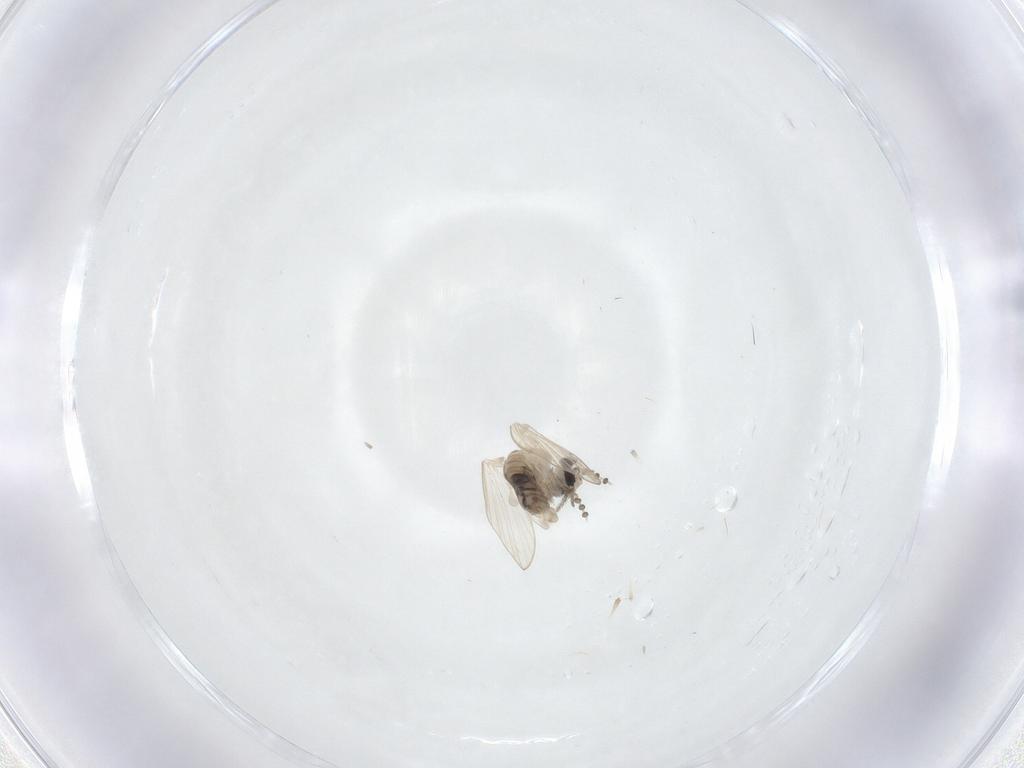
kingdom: Animalia
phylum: Arthropoda
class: Insecta
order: Diptera
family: Psychodidae
